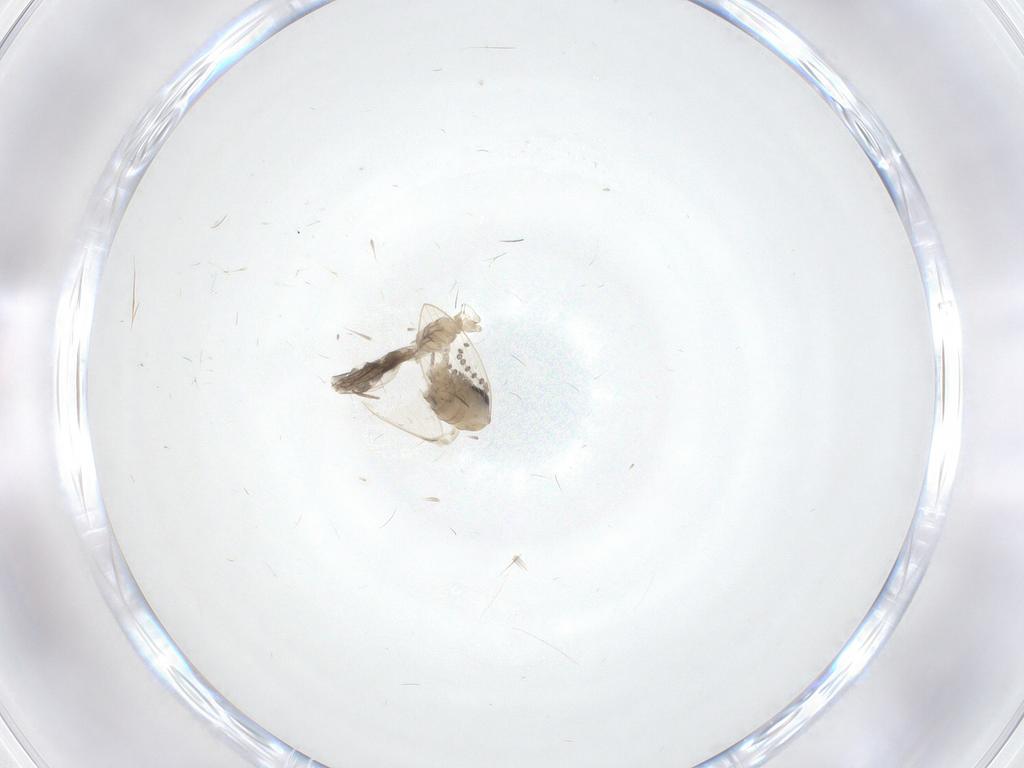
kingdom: Animalia
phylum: Arthropoda
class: Insecta
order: Diptera
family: Psychodidae
